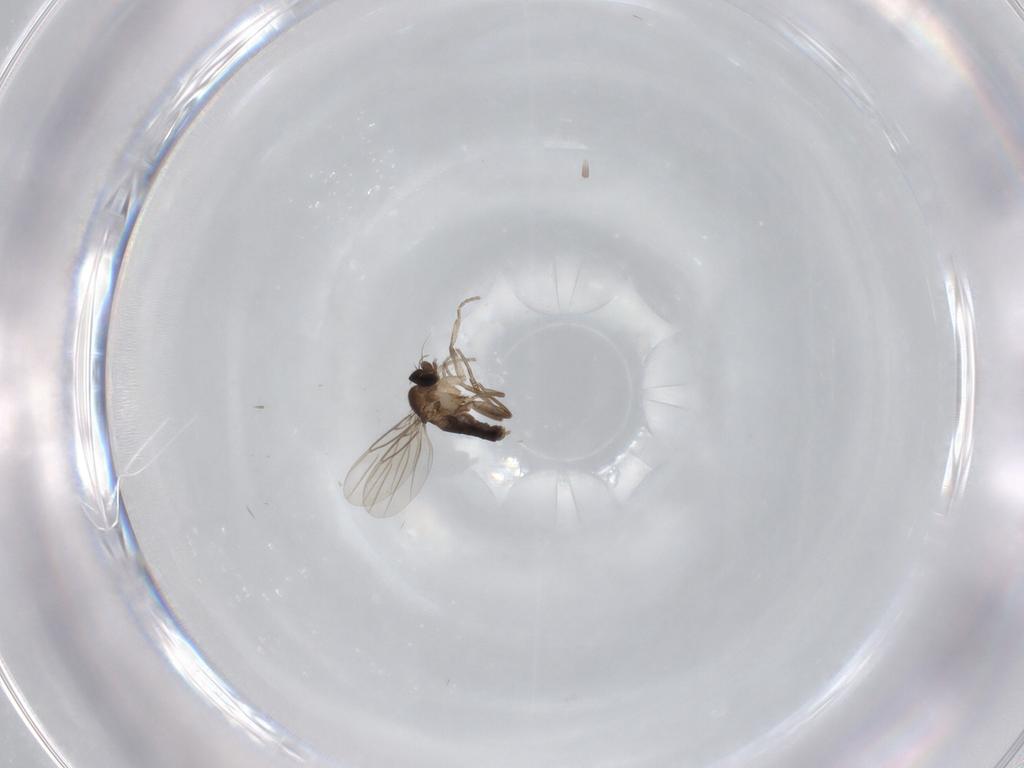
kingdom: Animalia
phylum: Arthropoda
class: Insecta
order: Diptera
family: Phoridae
